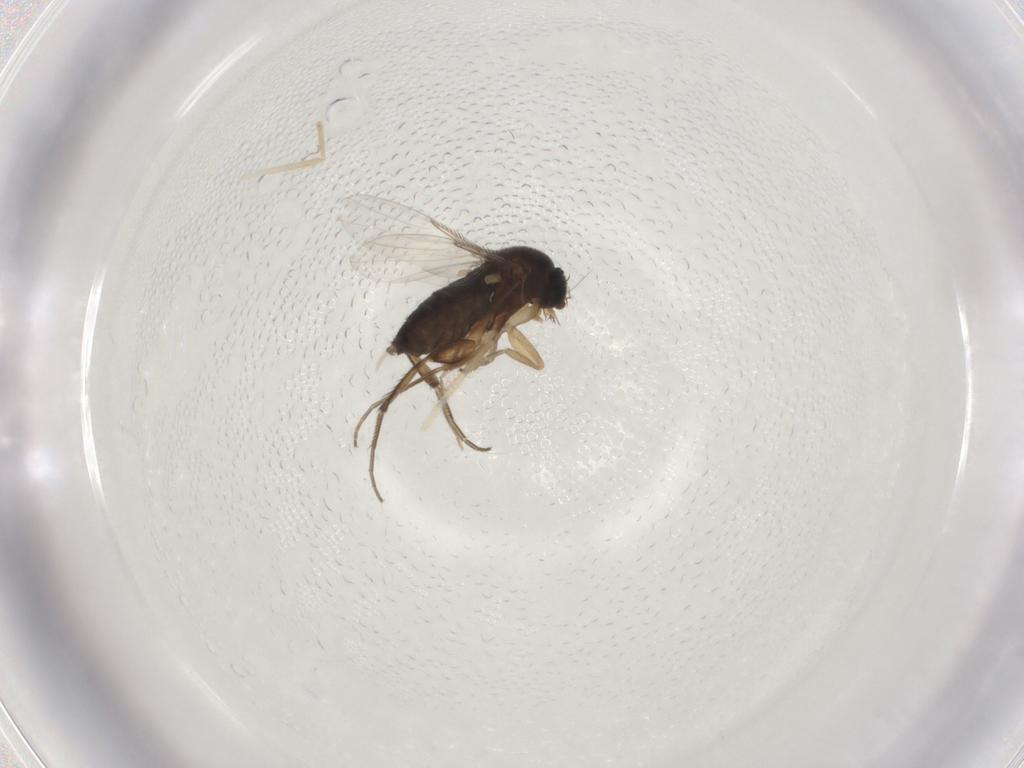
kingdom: Animalia
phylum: Arthropoda
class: Insecta
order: Diptera
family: Phoridae
